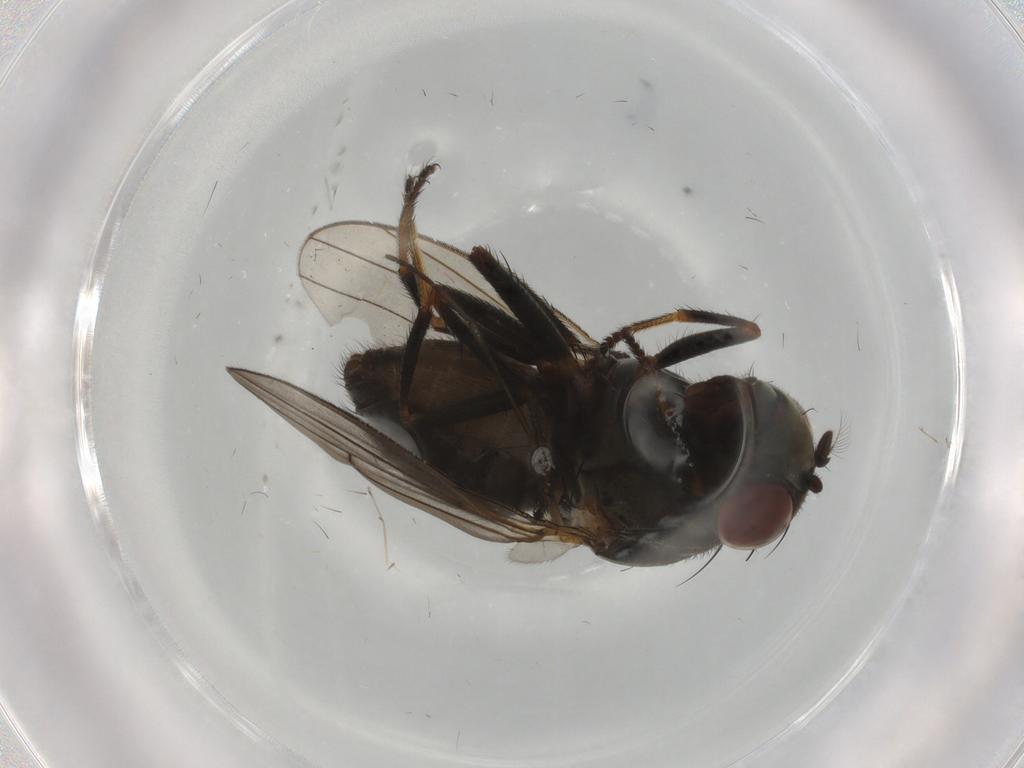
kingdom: Animalia
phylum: Arthropoda
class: Insecta
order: Diptera
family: Ephydridae
